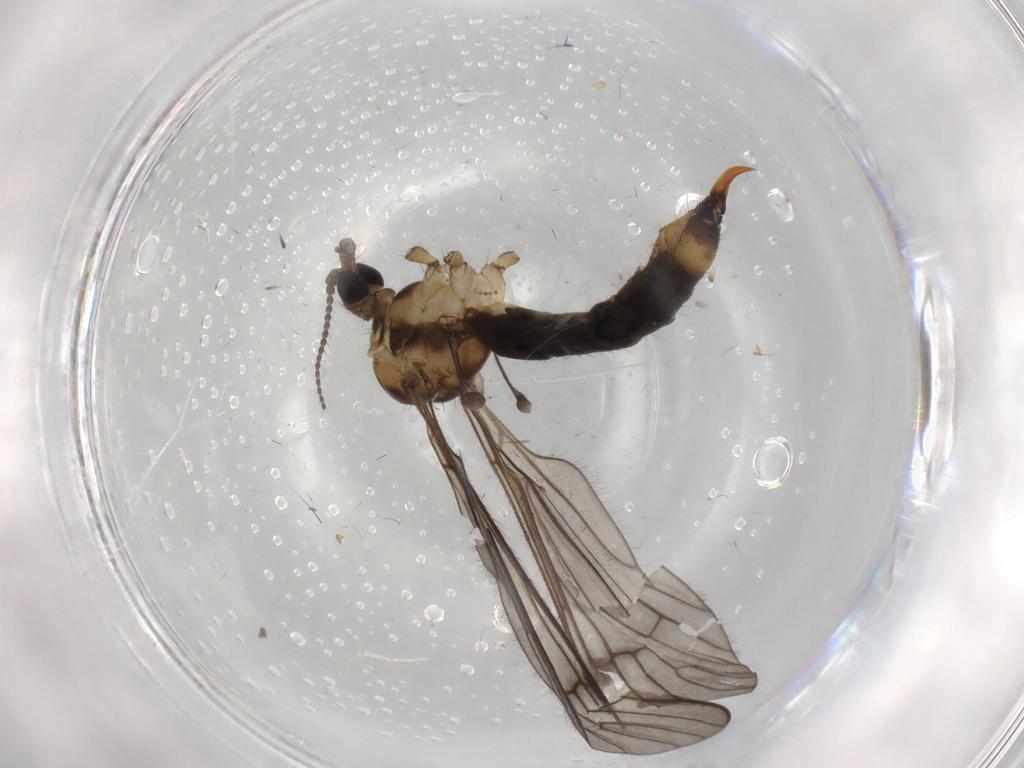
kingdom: Animalia
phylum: Arthropoda
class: Insecta
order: Diptera
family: Psychodidae
